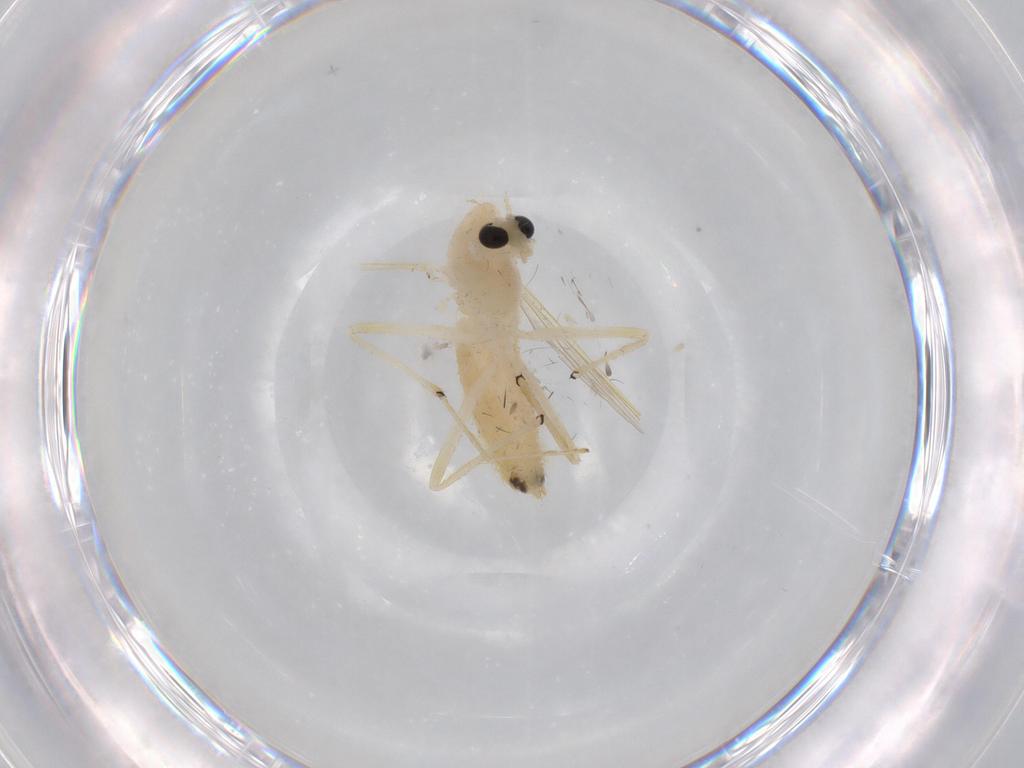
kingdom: Animalia
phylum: Arthropoda
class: Insecta
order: Diptera
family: Chironomidae
